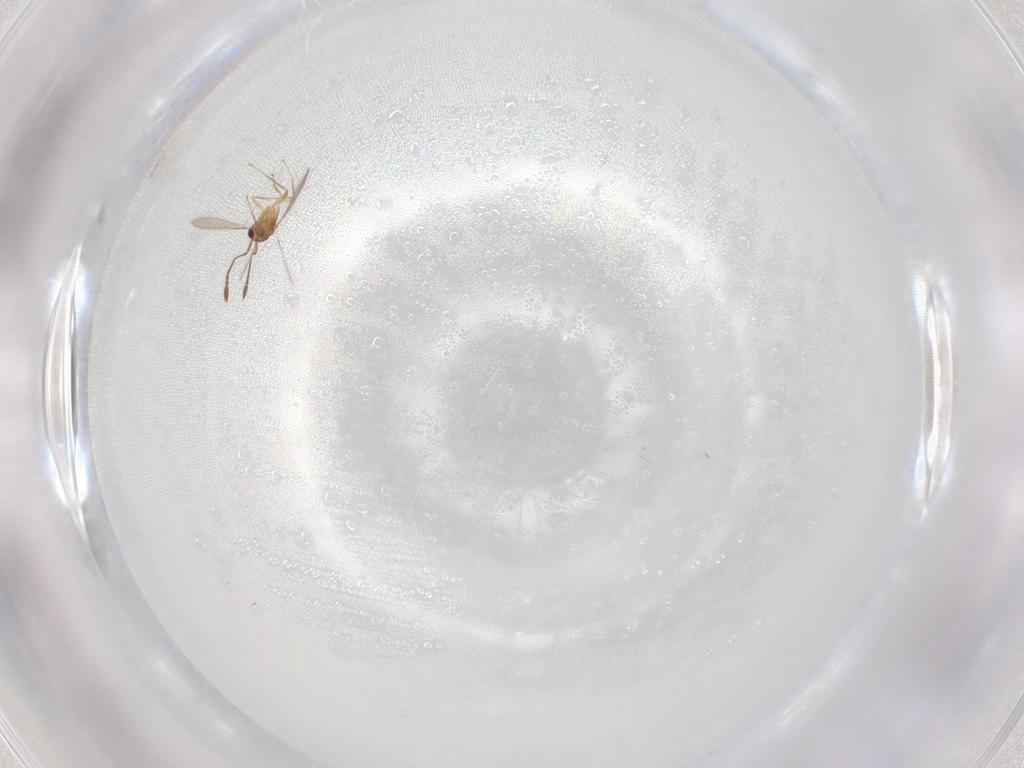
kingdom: Animalia
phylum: Arthropoda
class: Insecta
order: Hymenoptera
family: Mymaridae
